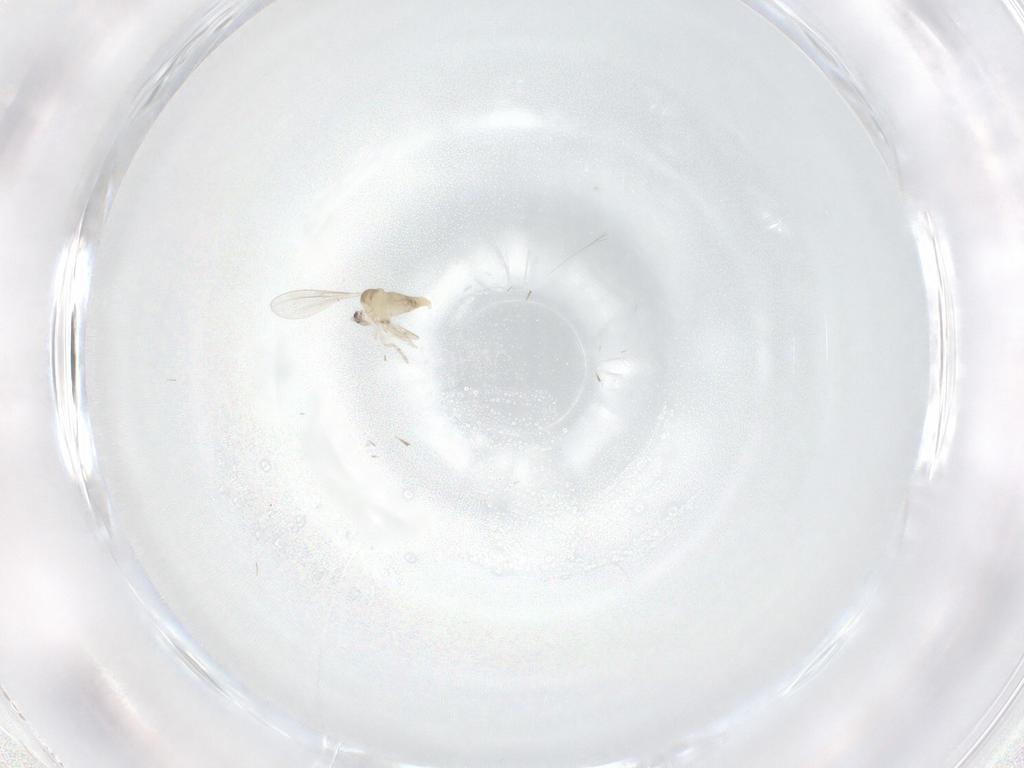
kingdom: Animalia
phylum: Arthropoda
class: Insecta
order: Diptera
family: Cecidomyiidae
